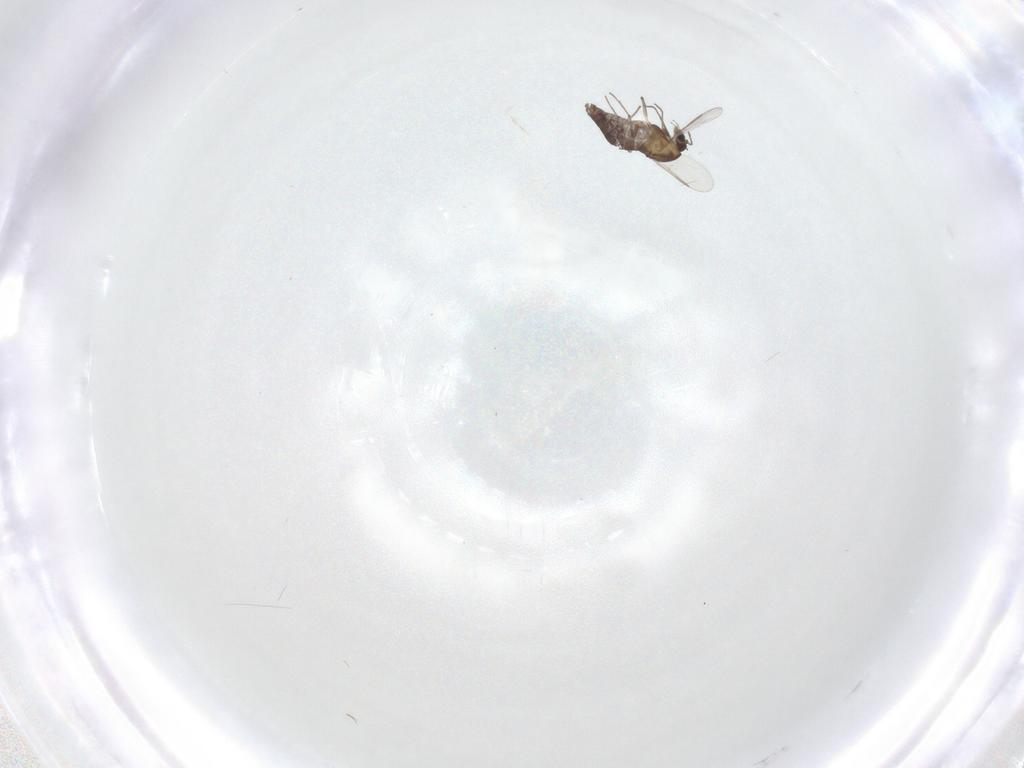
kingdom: Animalia
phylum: Arthropoda
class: Insecta
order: Diptera
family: Chironomidae
